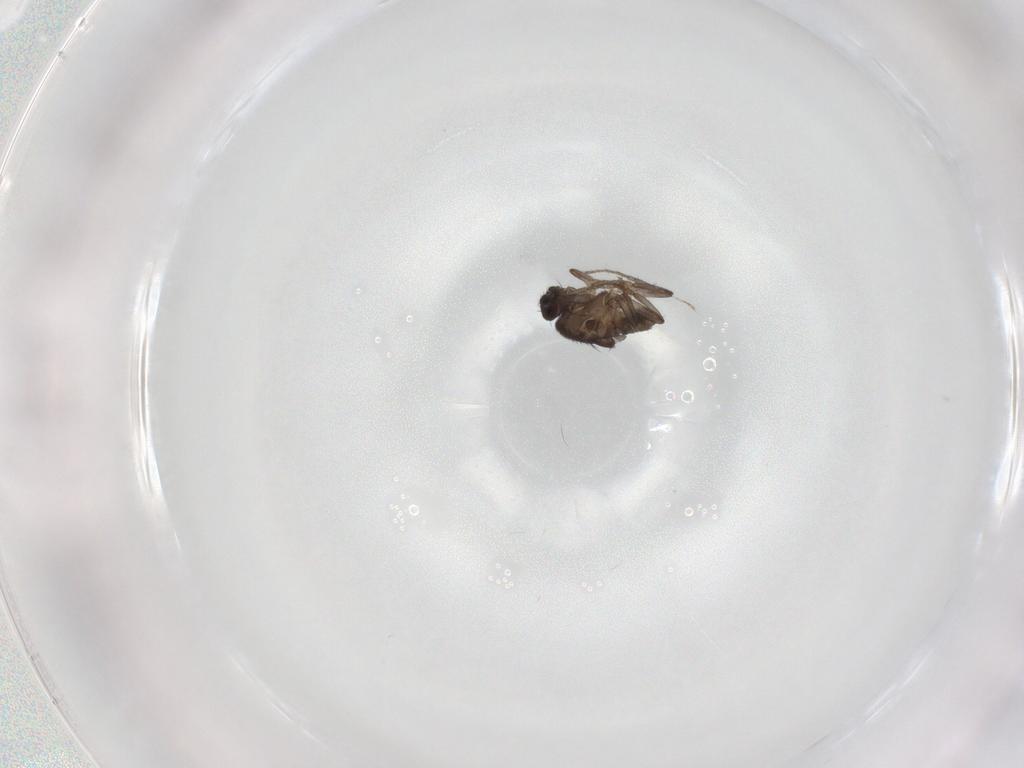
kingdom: Animalia
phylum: Arthropoda
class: Insecta
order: Diptera
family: Sphaeroceridae
